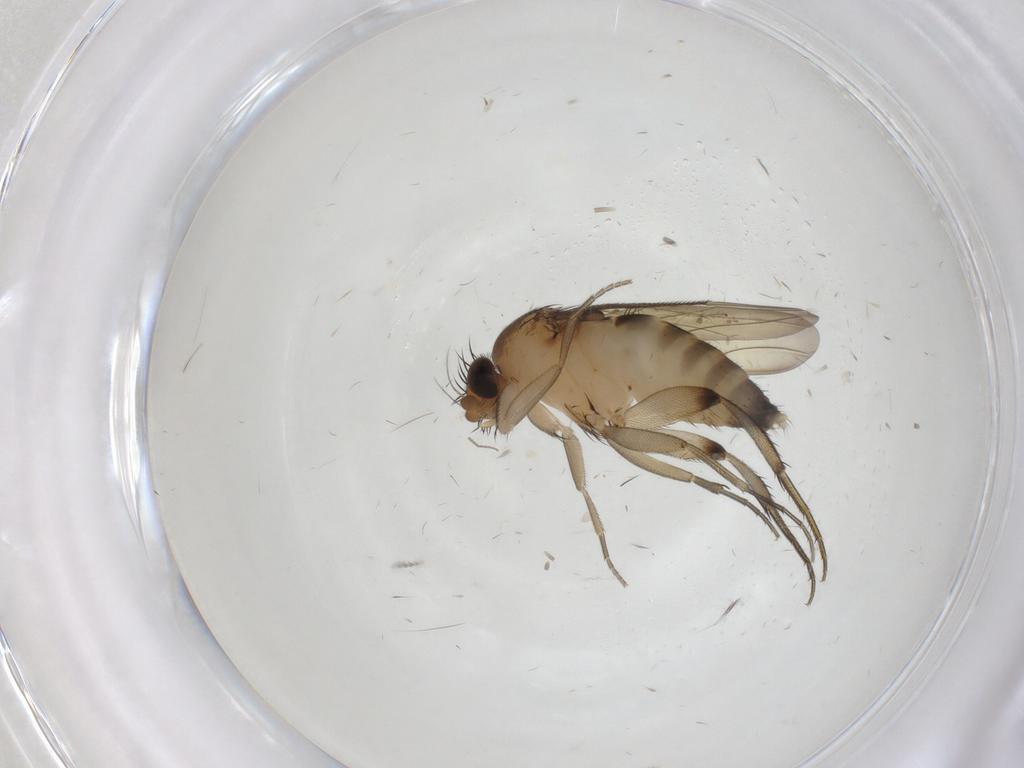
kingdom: Animalia
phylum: Arthropoda
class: Insecta
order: Diptera
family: Phoridae
